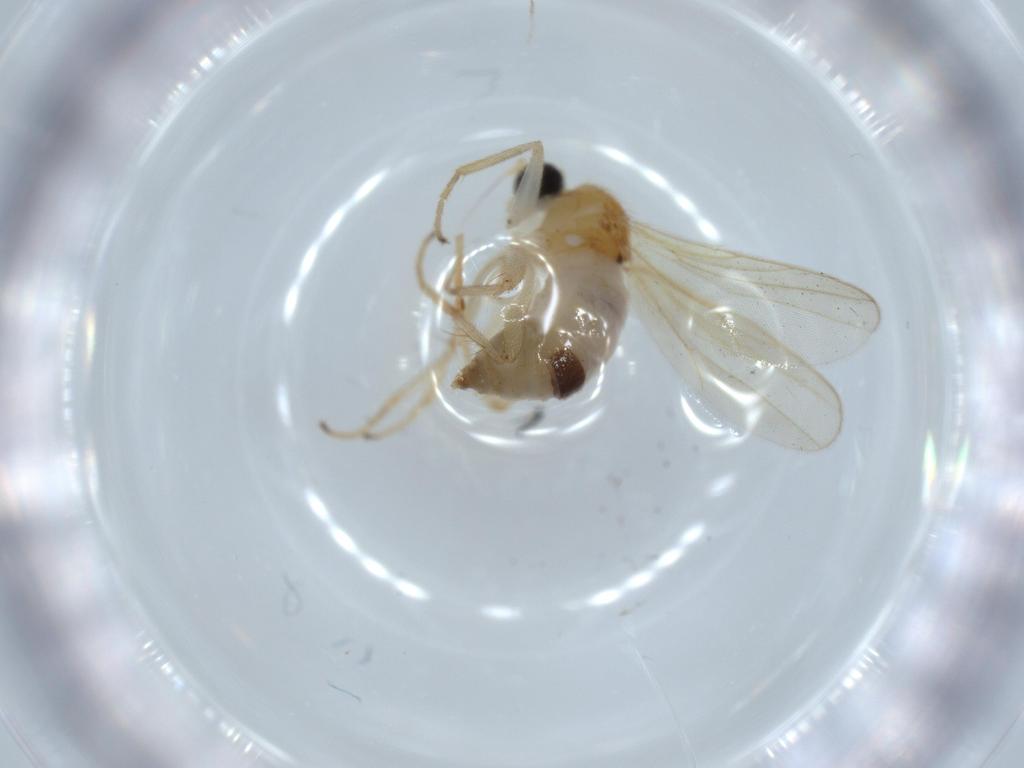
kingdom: Animalia
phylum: Arthropoda
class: Insecta
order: Diptera
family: Hybotidae
